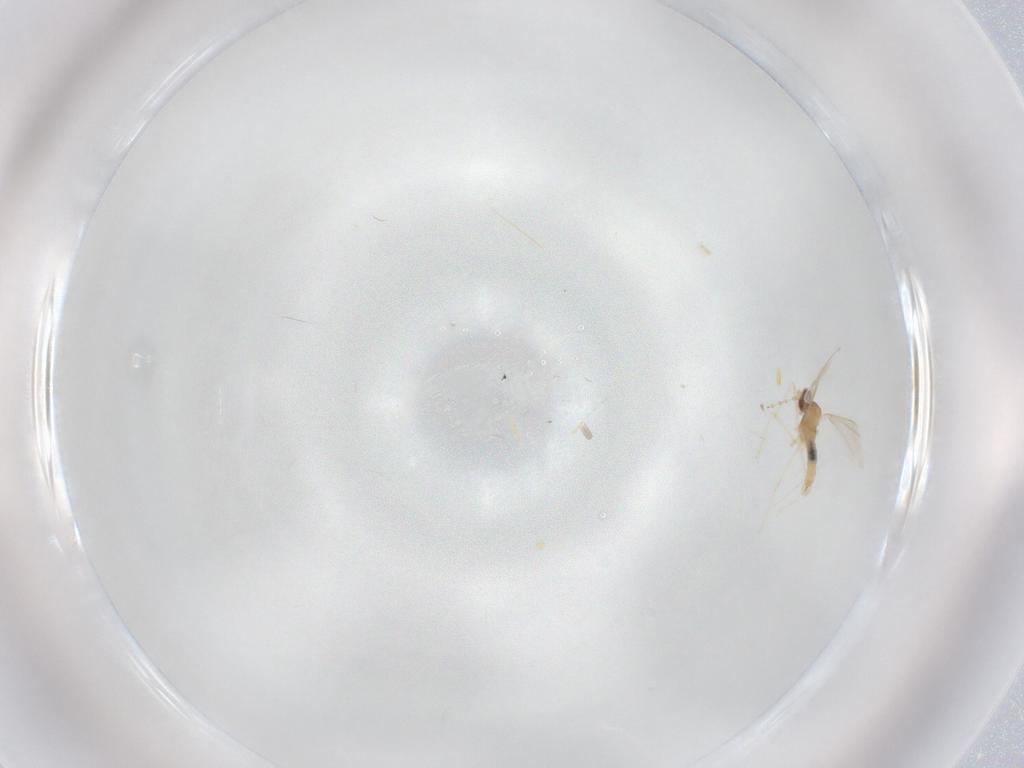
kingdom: Animalia
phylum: Arthropoda
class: Insecta
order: Diptera
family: Cecidomyiidae
